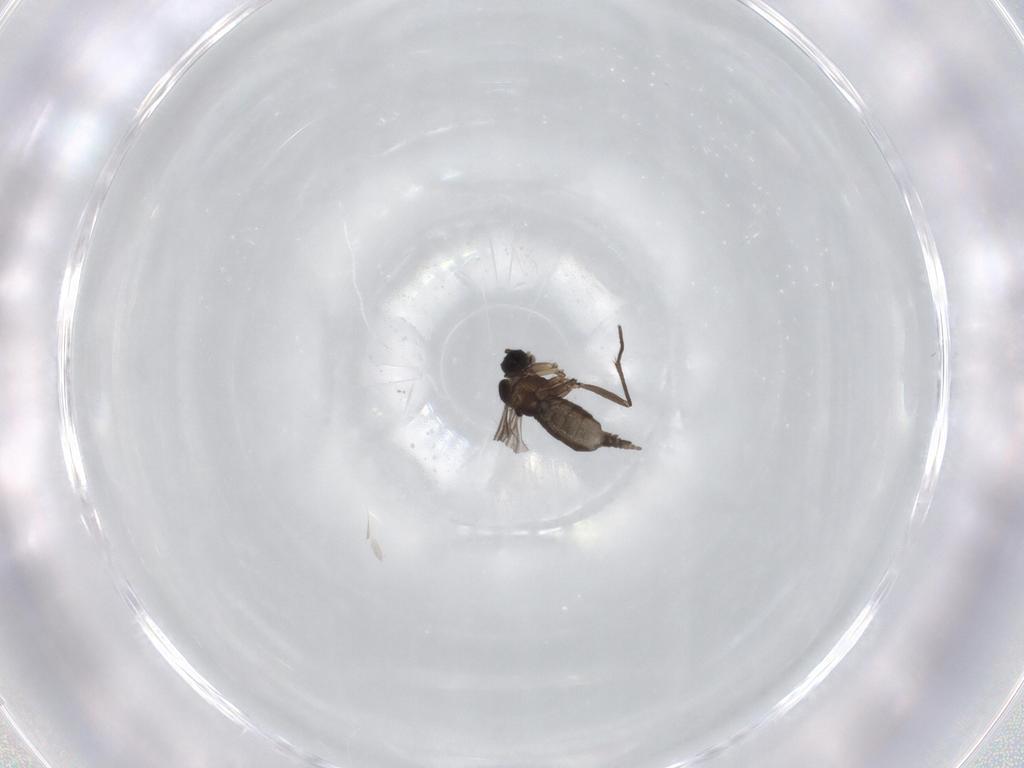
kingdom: Animalia
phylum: Arthropoda
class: Insecta
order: Diptera
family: Sciaridae
